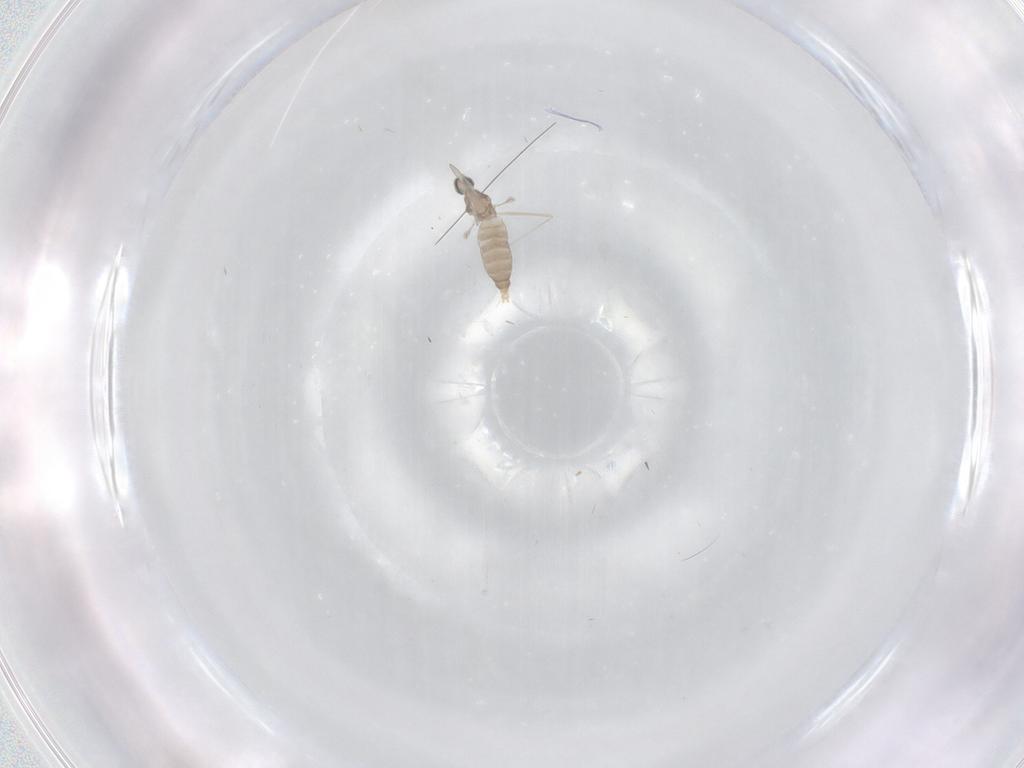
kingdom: Animalia
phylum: Arthropoda
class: Insecta
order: Diptera
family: Cecidomyiidae
